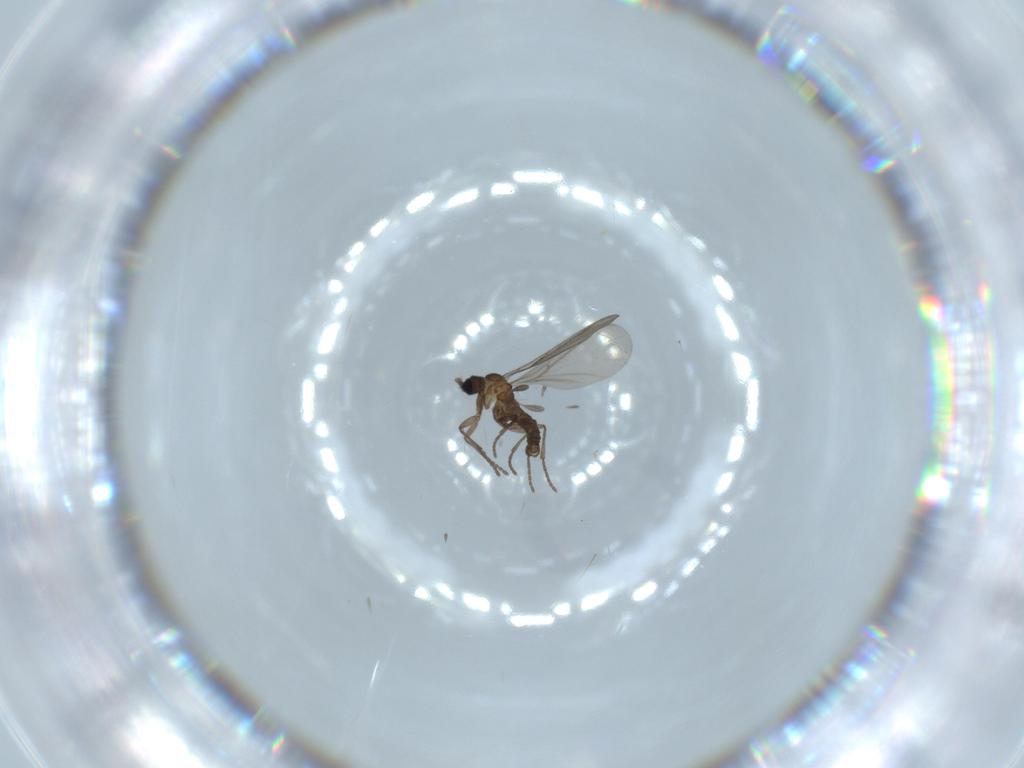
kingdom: Animalia
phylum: Arthropoda
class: Insecta
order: Diptera
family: Cecidomyiidae
